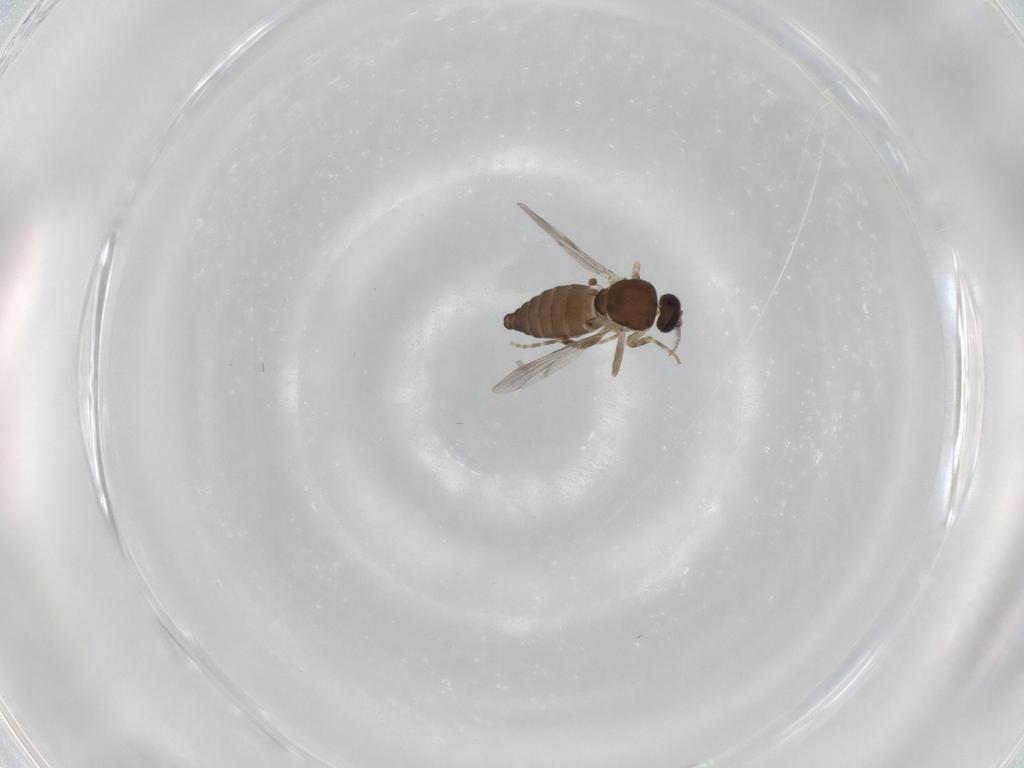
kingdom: Animalia
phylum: Arthropoda
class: Insecta
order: Diptera
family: Ceratopogonidae
